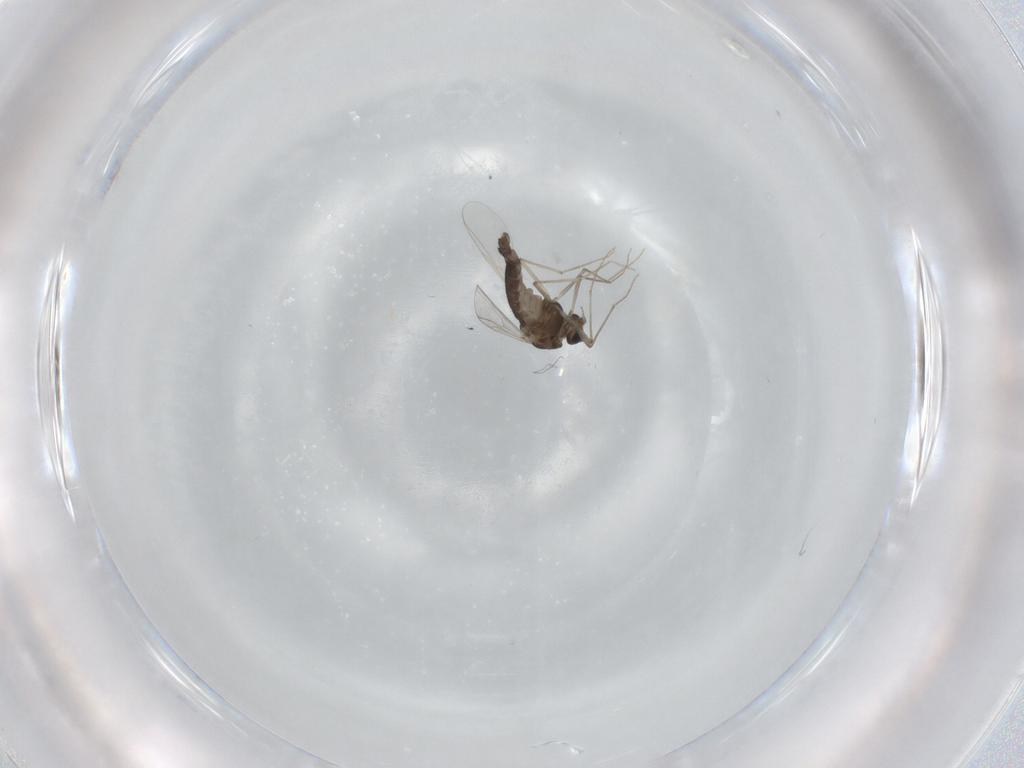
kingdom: Animalia
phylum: Arthropoda
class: Insecta
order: Diptera
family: Chironomidae
